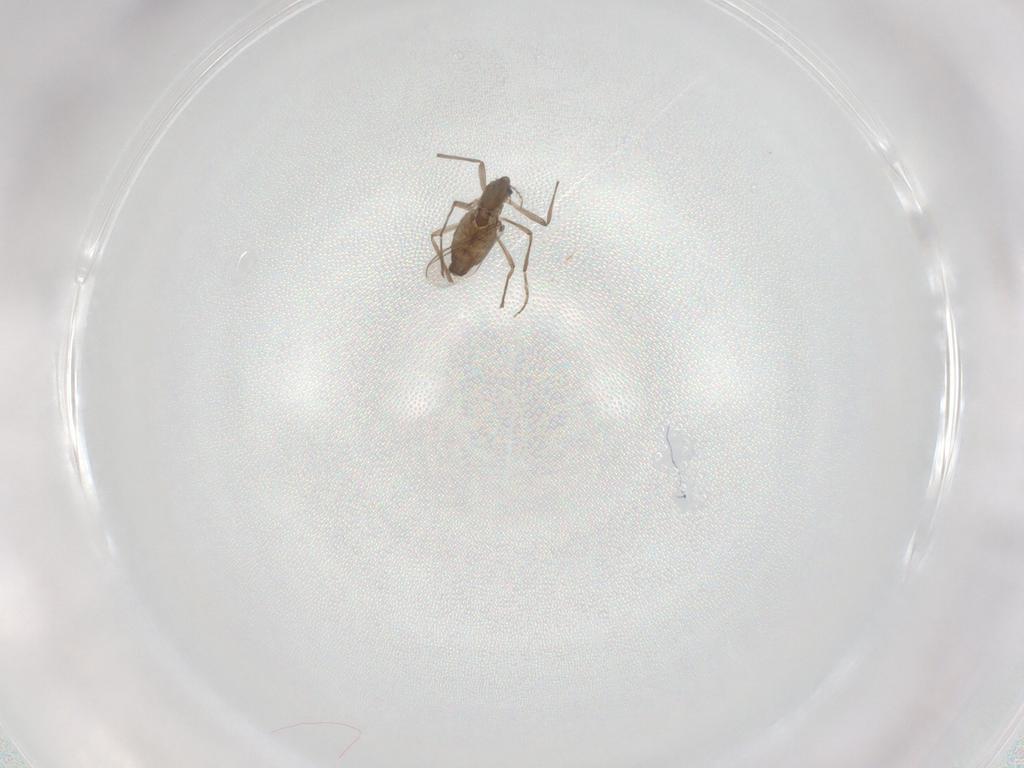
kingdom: Animalia
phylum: Arthropoda
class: Insecta
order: Diptera
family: Chironomidae
